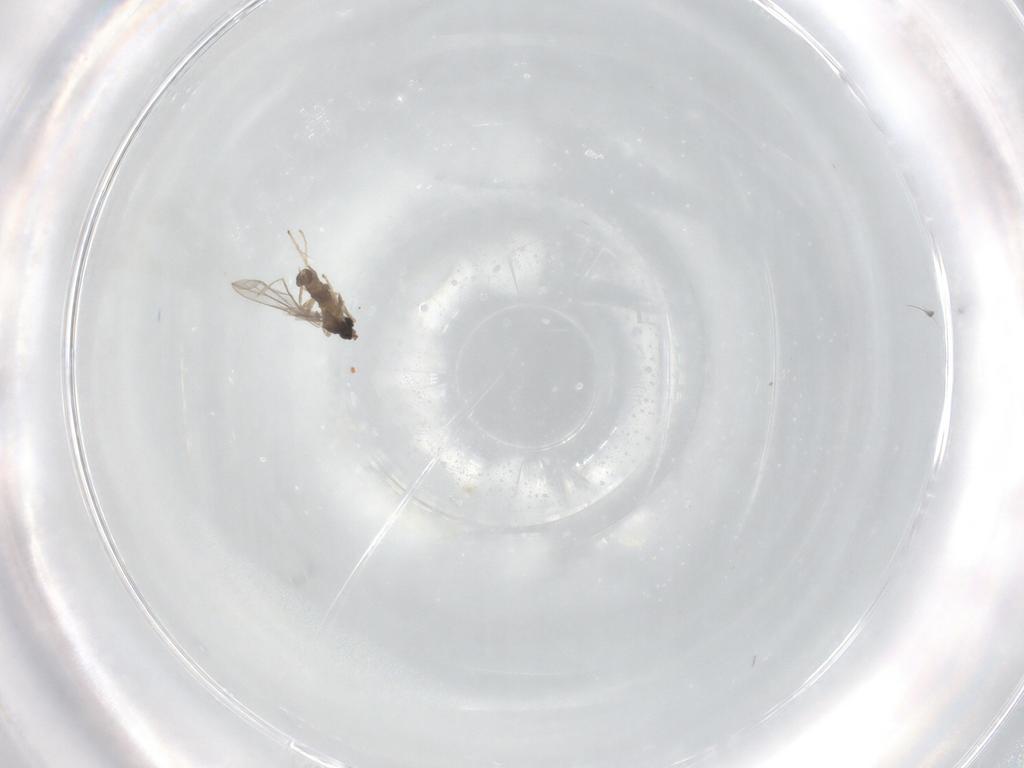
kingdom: Animalia
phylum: Arthropoda
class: Insecta
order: Diptera
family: Cecidomyiidae
